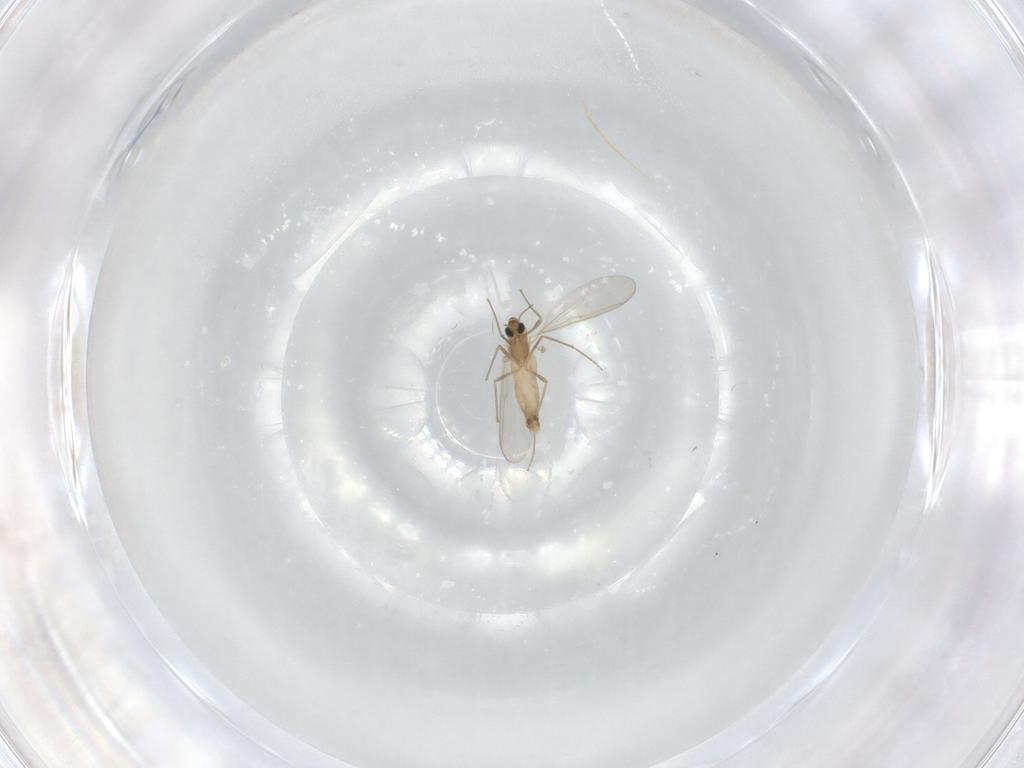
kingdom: Animalia
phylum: Arthropoda
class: Insecta
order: Diptera
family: Chironomidae
